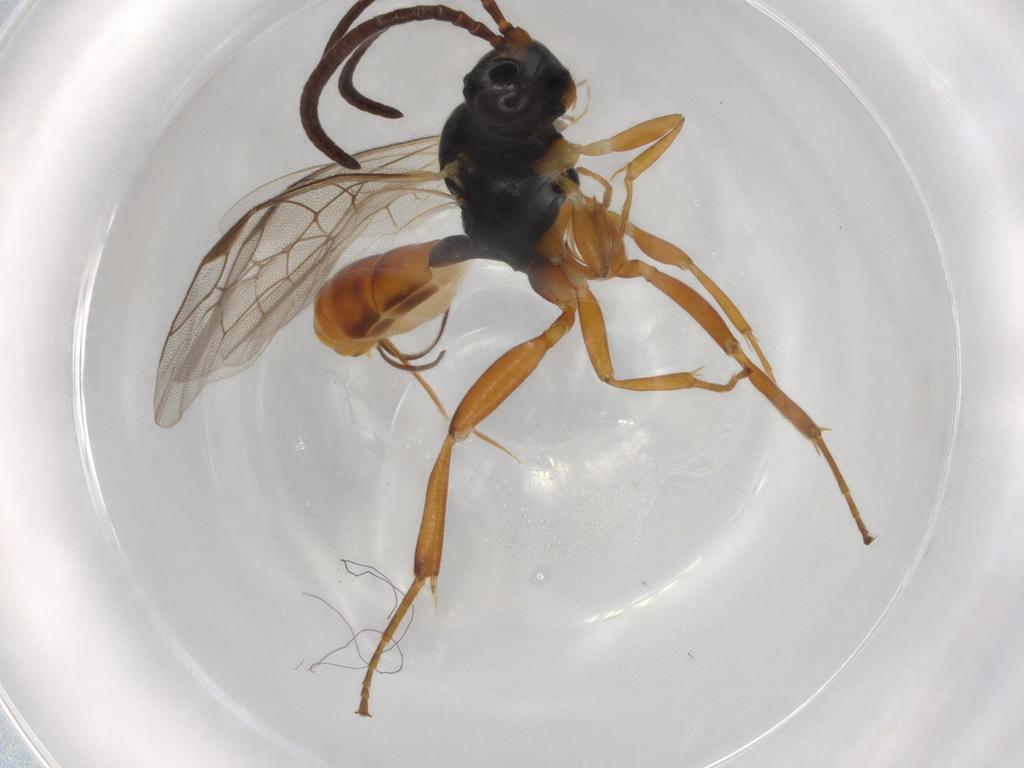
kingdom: Animalia
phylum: Arthropoda
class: Insecta
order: Hymenoptera
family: Ichneumonidae
